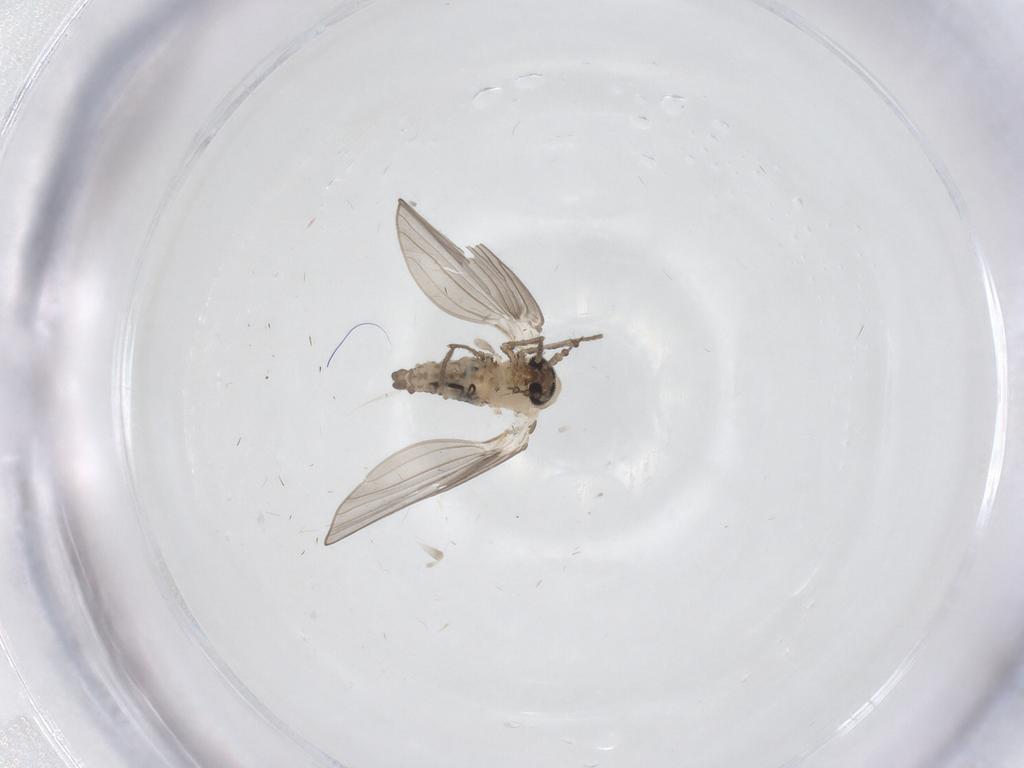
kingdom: Animalia
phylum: Arthropoda
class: Insecta
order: Diptera
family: Psychodidae
